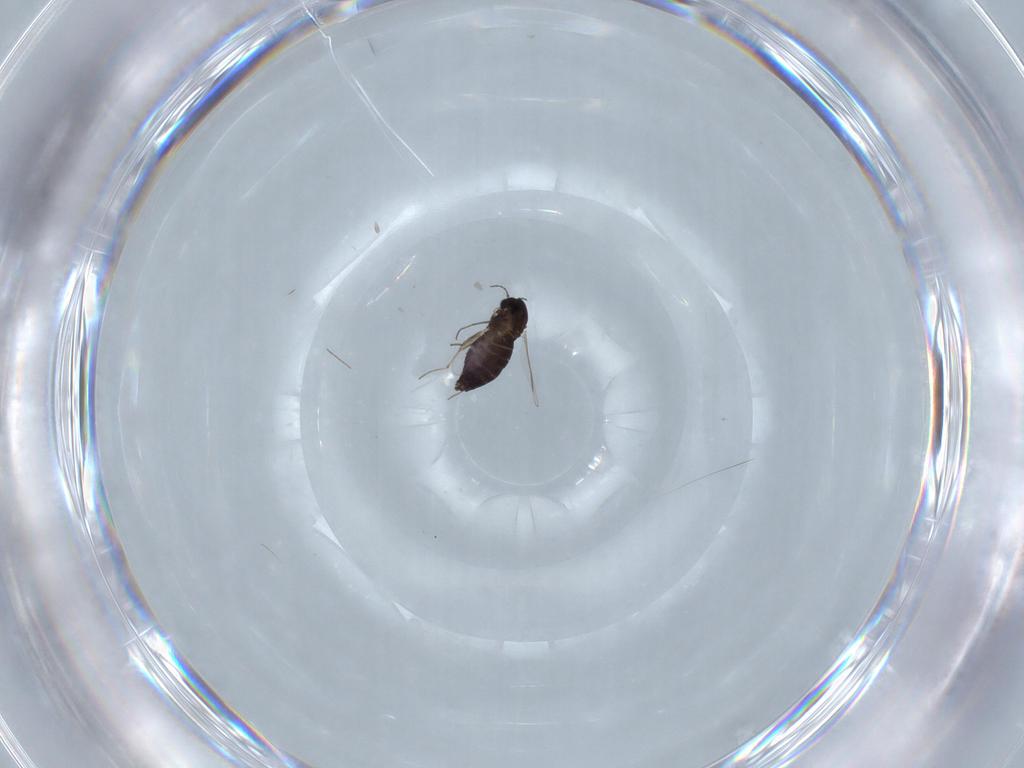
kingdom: Animalia
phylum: Arthropoda
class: Insecta
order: Diptera
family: Chironomidae
